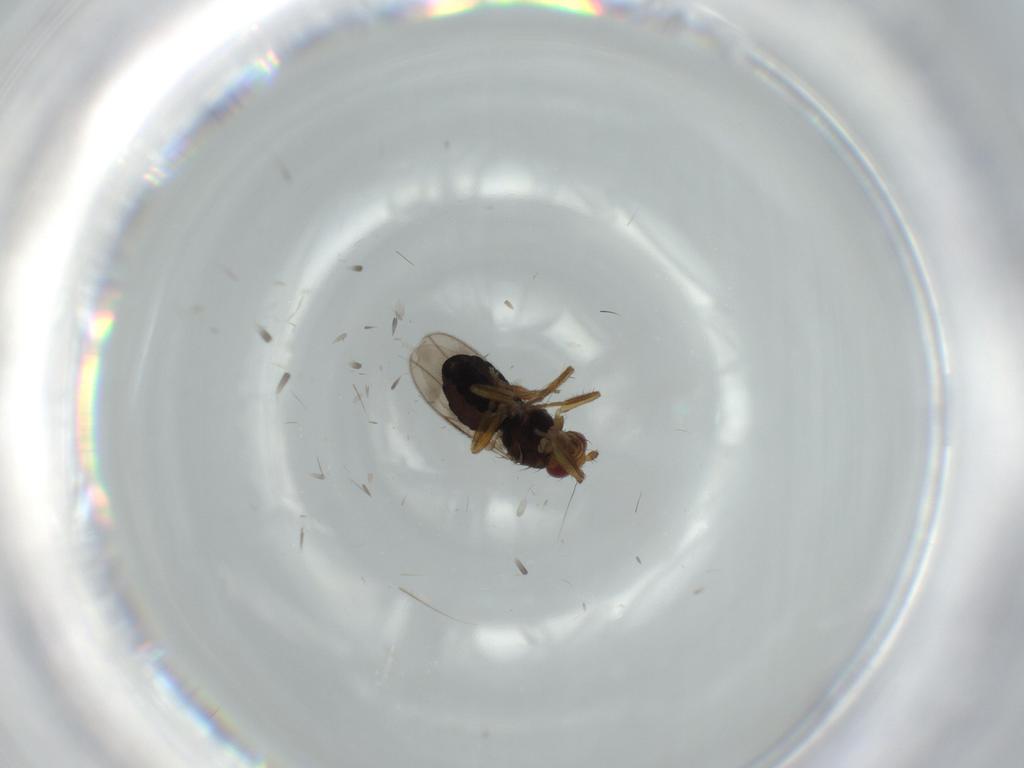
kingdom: Animalia
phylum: Arthropoda
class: Insecta
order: Diptera
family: Sphaeroceridae
